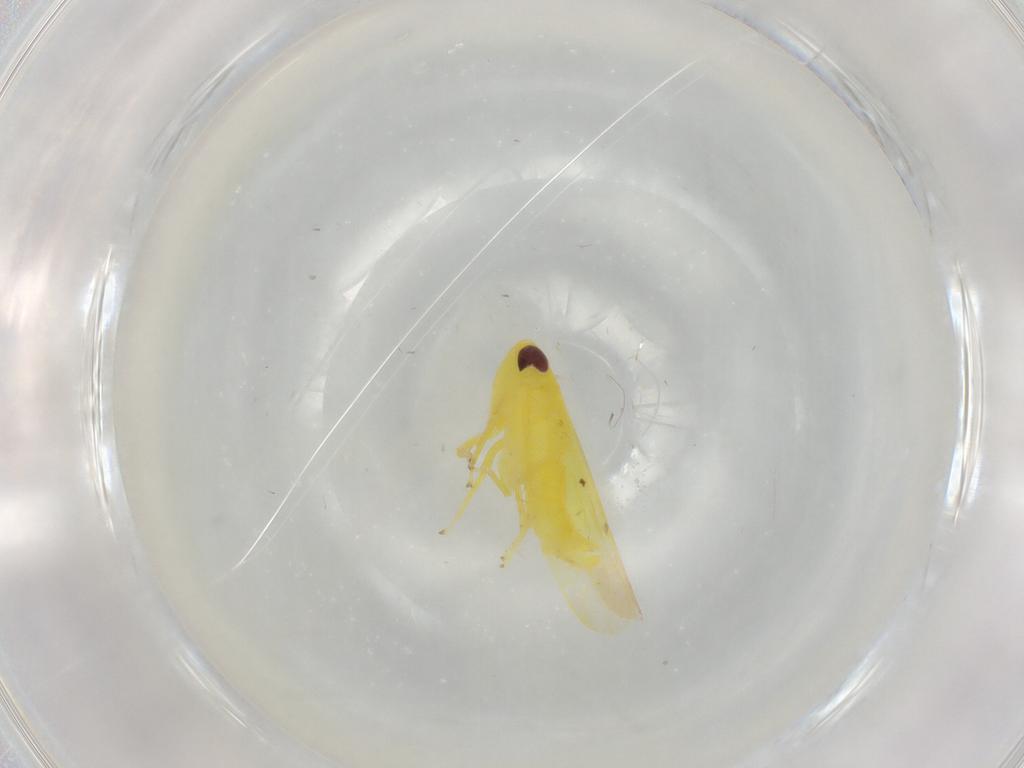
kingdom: Animalia
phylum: Arthropoda
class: Insecta
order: Hemiptera
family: Cicadellidae
